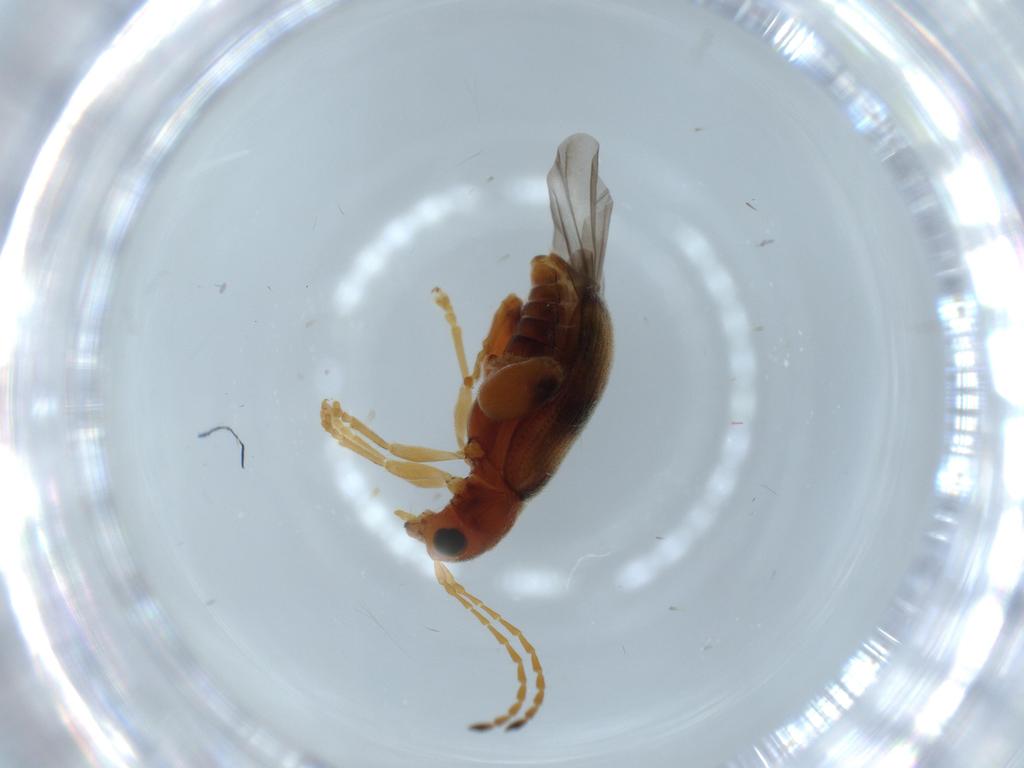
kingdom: Animalia
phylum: Arthropoda
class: Insecta
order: Coleoptera
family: Chrysomelidae
